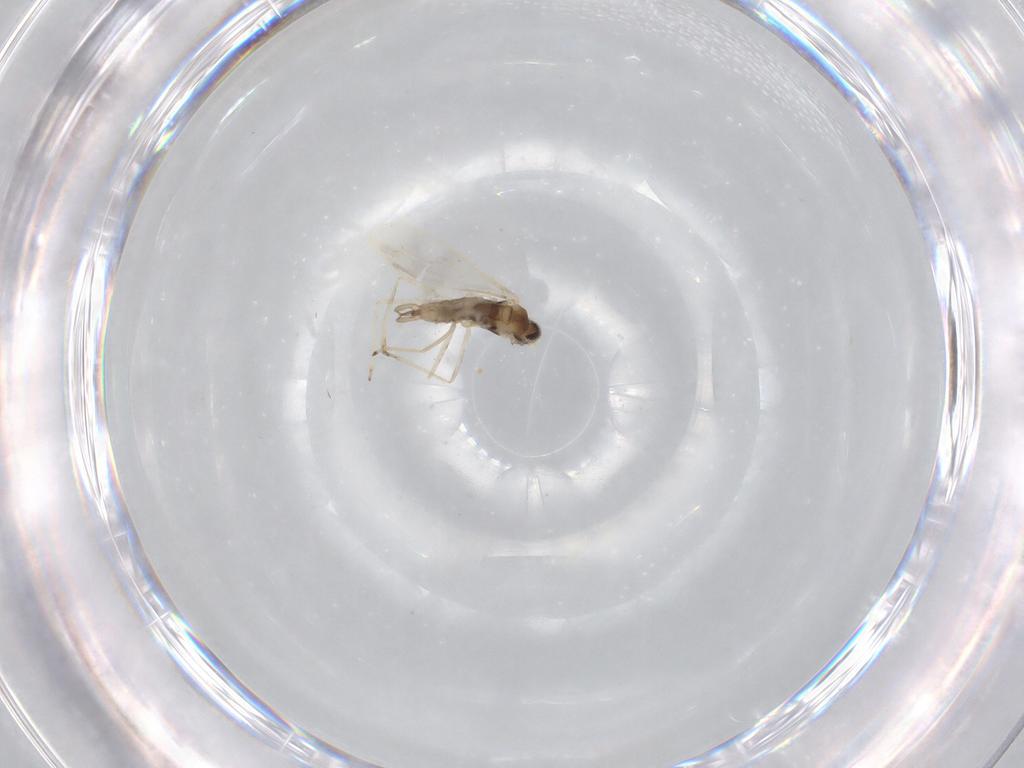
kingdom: Animalia
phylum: Arthropoda
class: Insecta
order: Diptera
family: Cecidomyiidae
